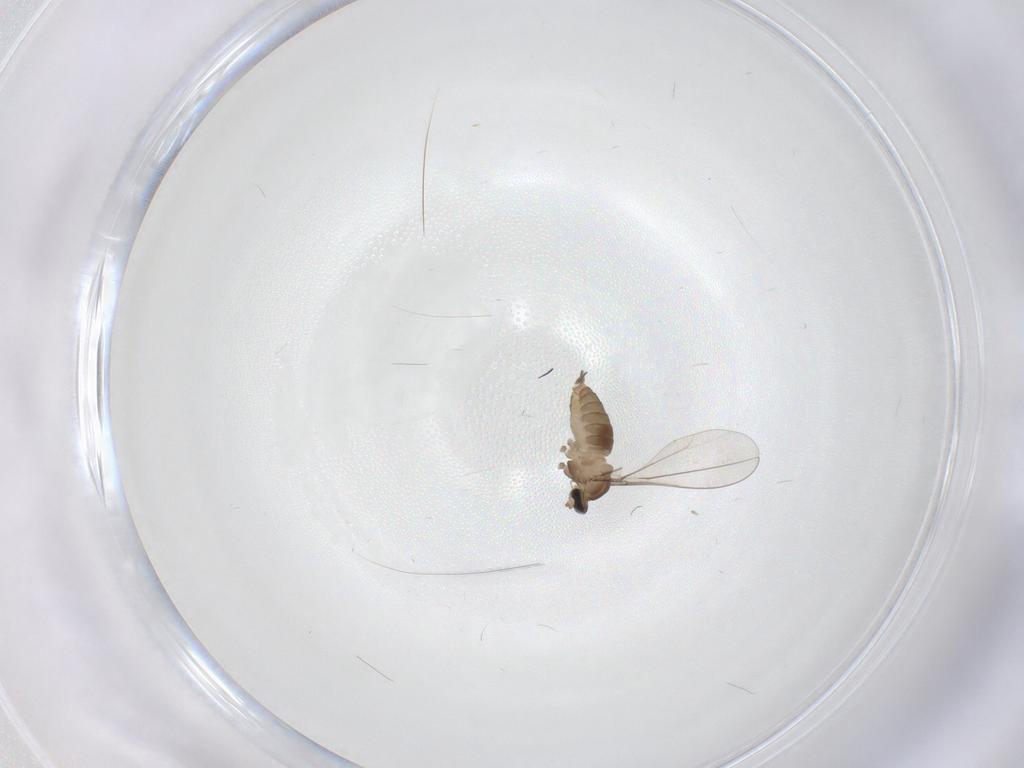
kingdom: Animalia
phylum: Arthropoda
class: Insecta
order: Diptera
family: Cecidomyiidae
